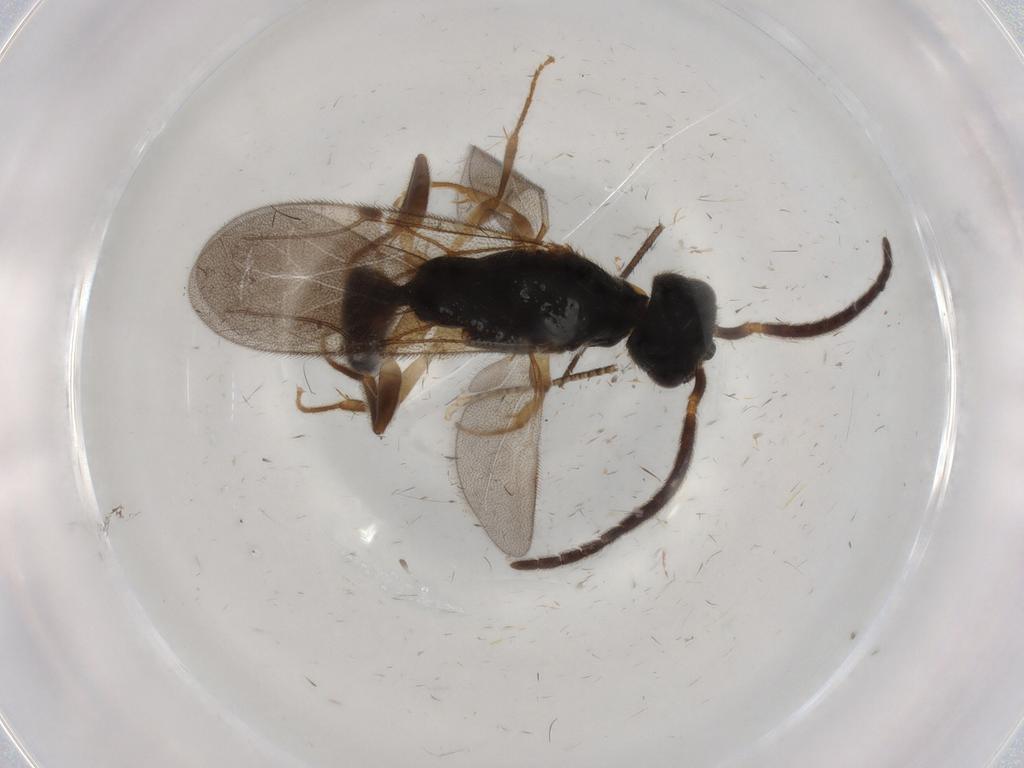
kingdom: Animalia
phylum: Arthropoda
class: Insecta
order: Hymenoptera
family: Bethylidae
